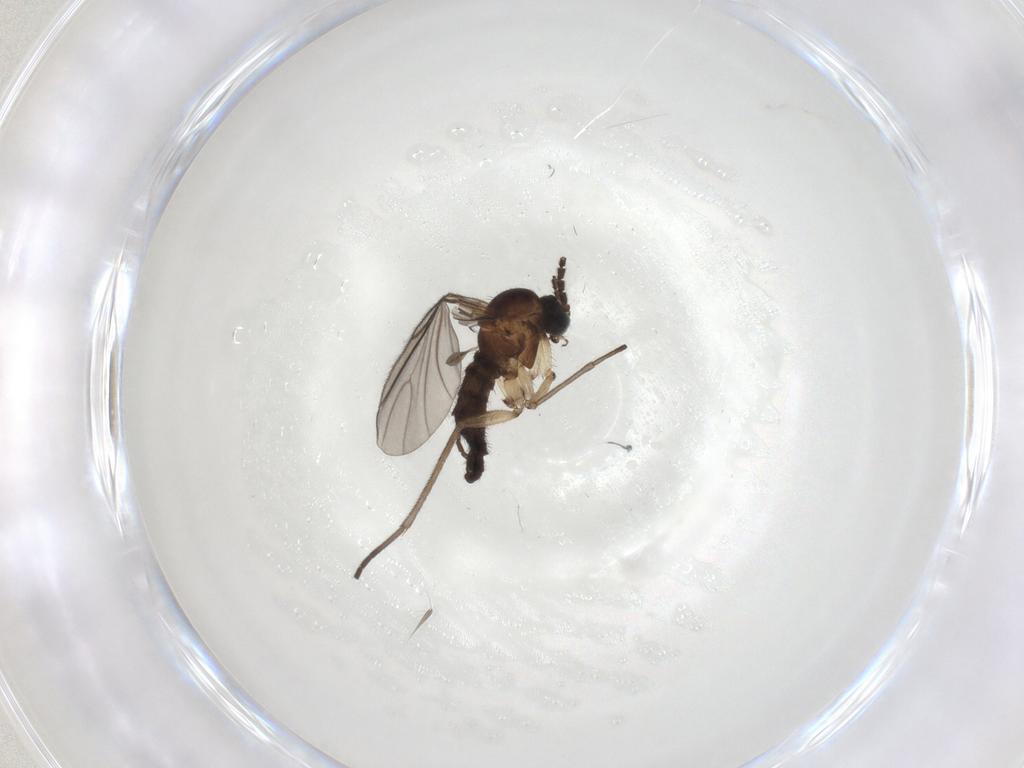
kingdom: Animalia
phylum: Arthropoda
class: Insecta
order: Diptera
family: Sciaridae
